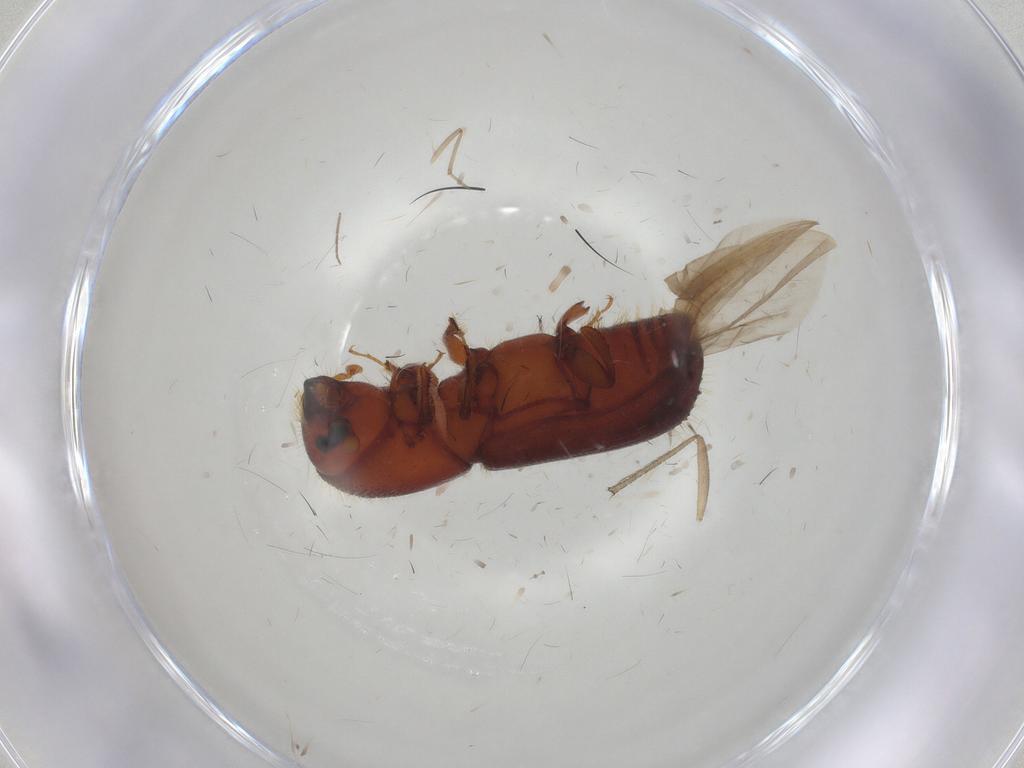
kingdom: Animalia
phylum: Arthropoda
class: Insecta
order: Coleoptera
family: Curculionidae
